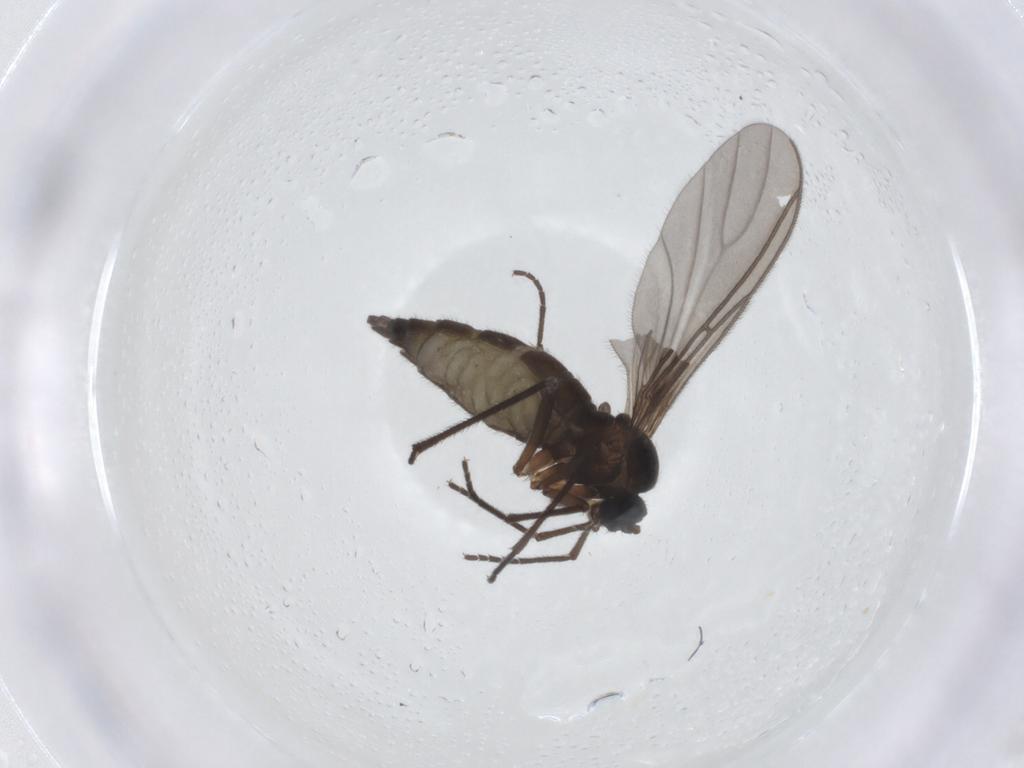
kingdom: Animalia
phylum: Arthropoda
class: Insecta
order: Diptera
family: Sciaridae
